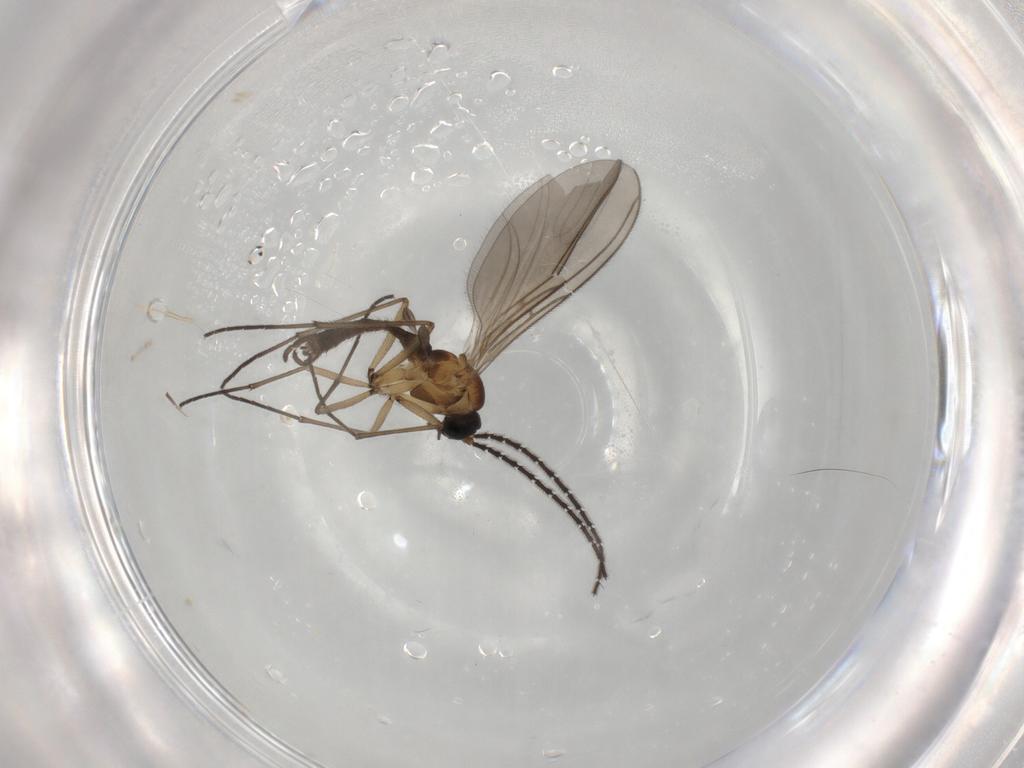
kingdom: Animalia
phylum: Arthropoda
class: Insecta
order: Diptera
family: Sciaridae
